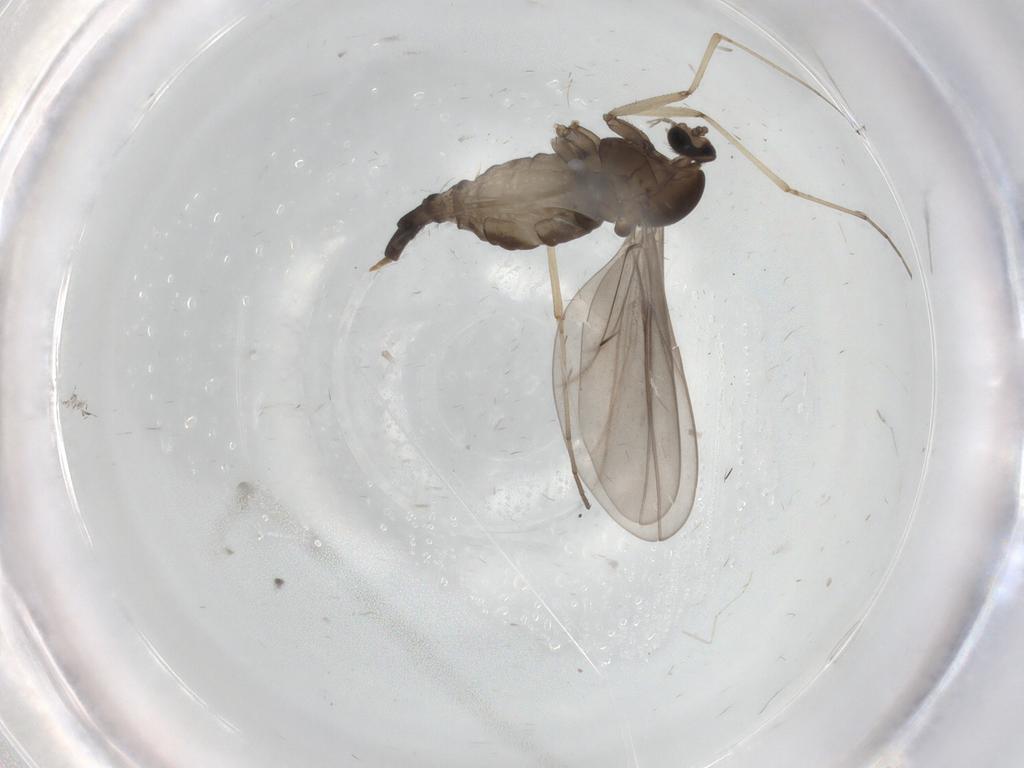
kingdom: Animalia
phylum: Arthropoda
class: Insecta
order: Diptera
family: Cecidomyiidae
